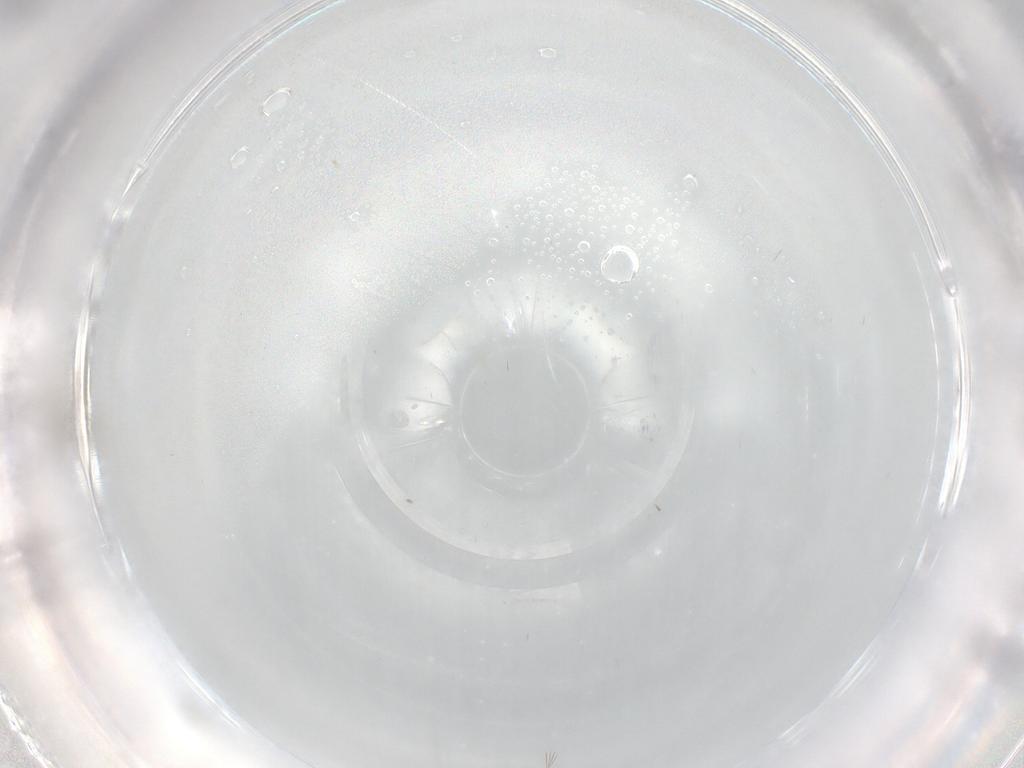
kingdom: Animalia
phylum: Arthropoda
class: Insecta
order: Diptera
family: Cecidomyiidae
